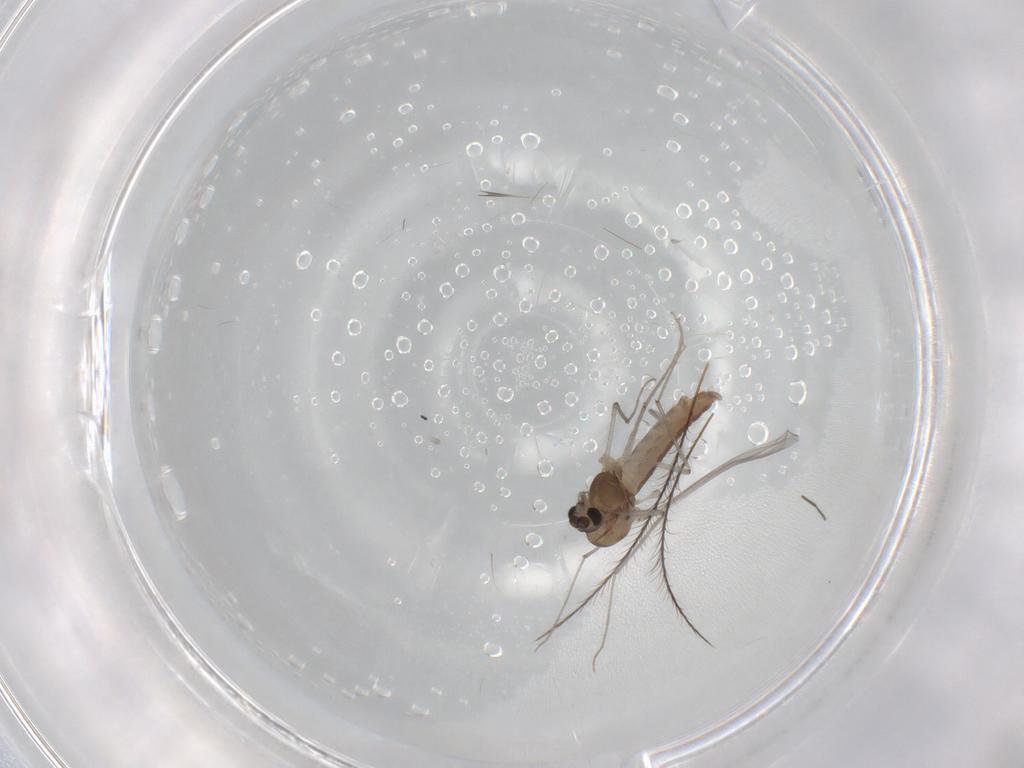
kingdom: Animalia
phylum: Arthropoda
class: Insecta
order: Diptera
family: Chironomidae
